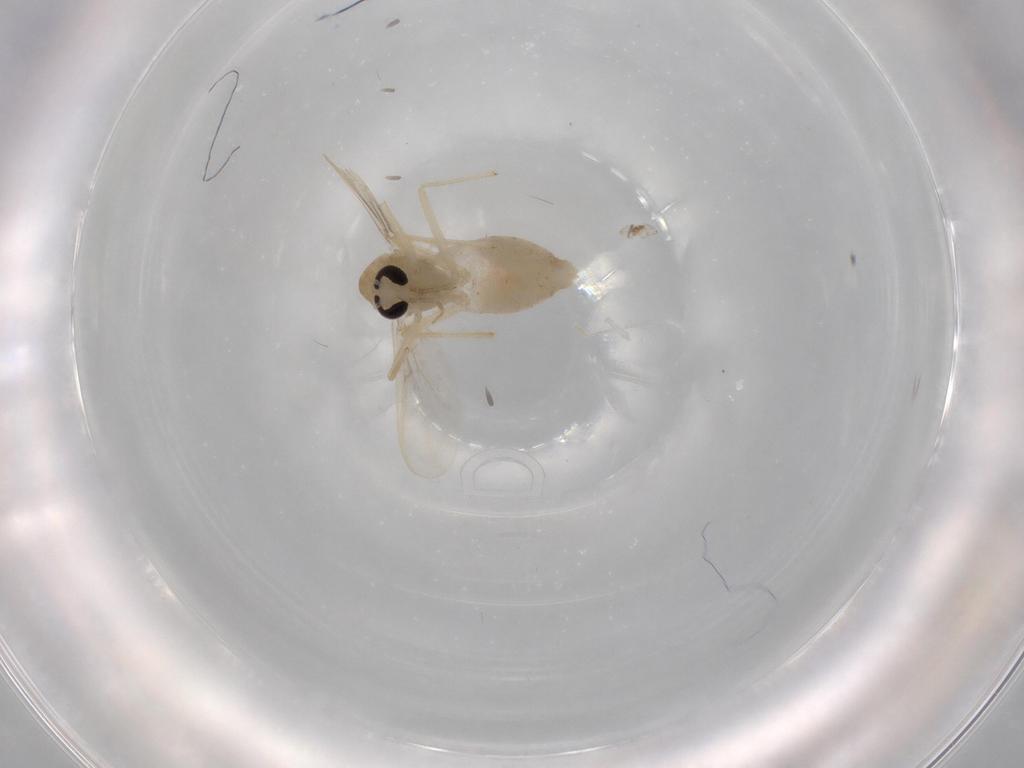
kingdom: Animalia
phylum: Arthropoda
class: Insecta
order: Diptera
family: Chironomidae
